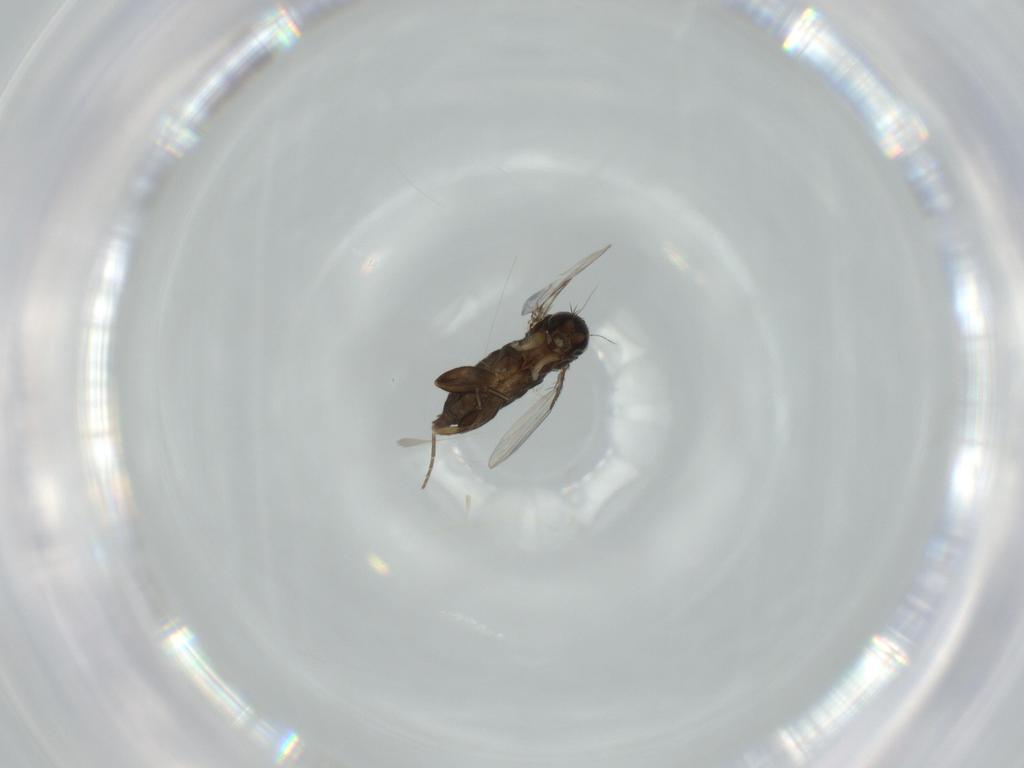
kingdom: Animalia
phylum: Arthropoda
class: Insecta
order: Diptera
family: Phoridae
